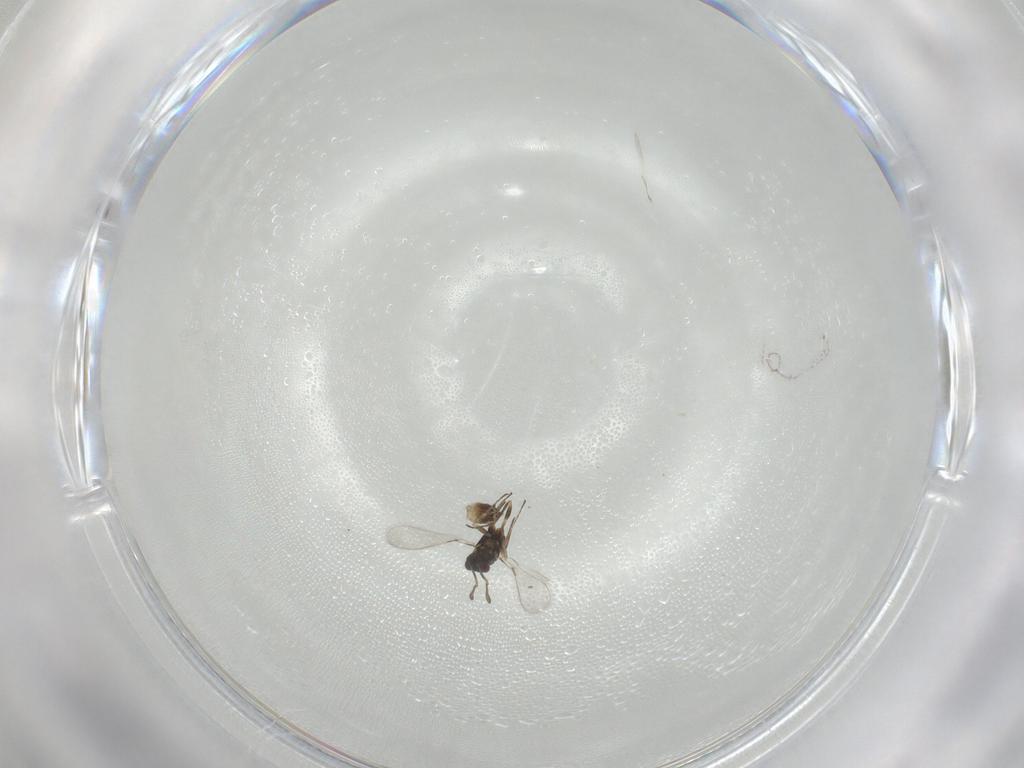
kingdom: Animalia
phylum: Arthropoda
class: Insecta
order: Hymenoptera
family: Mymaridae
